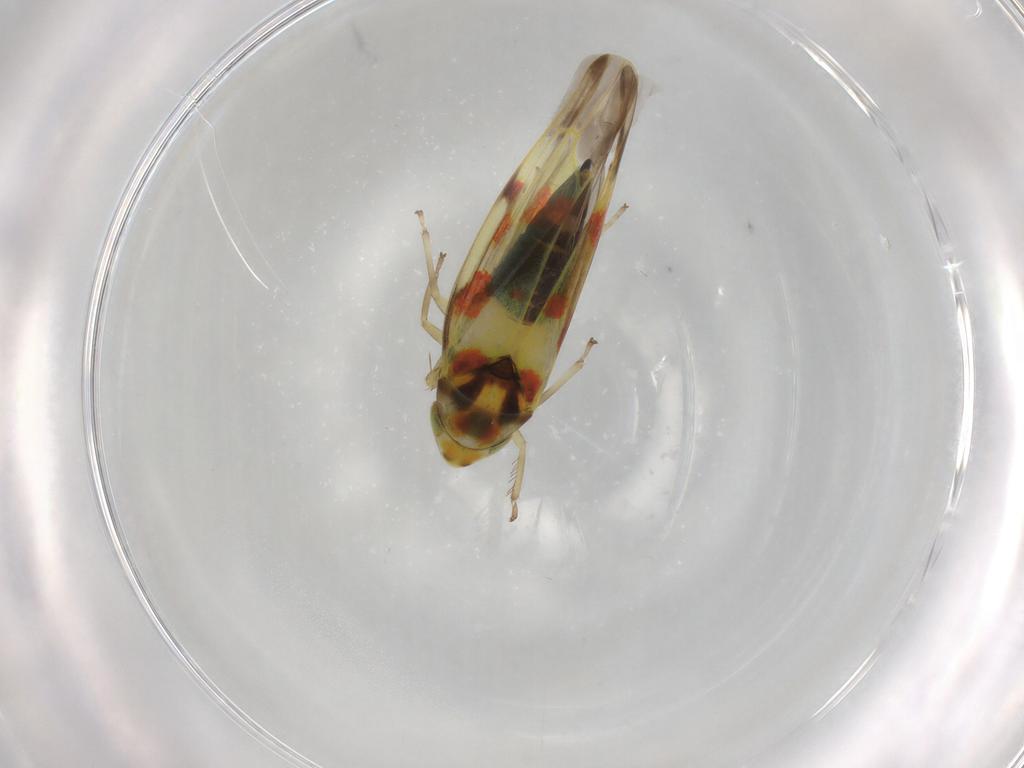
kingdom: Animalia
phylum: Arthropoda
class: Insecta
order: Hemiptera
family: Cicadellidae
